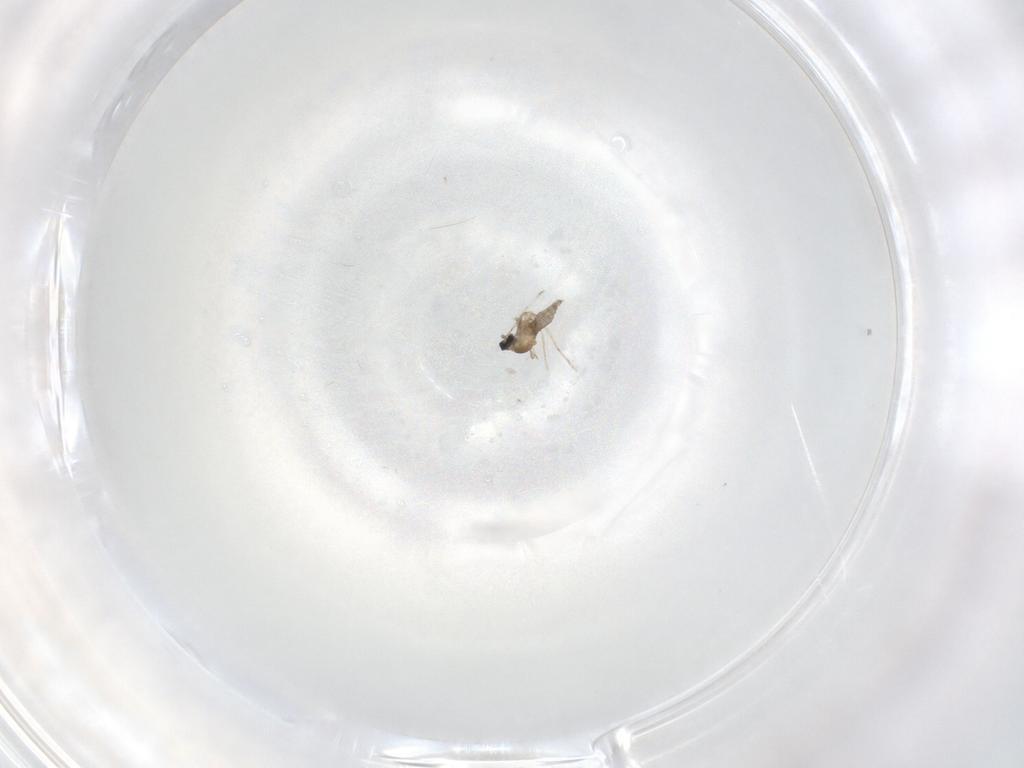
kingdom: Animalia
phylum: Arthropoda
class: Insecta
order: Diptera
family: Cecidomyiidae
